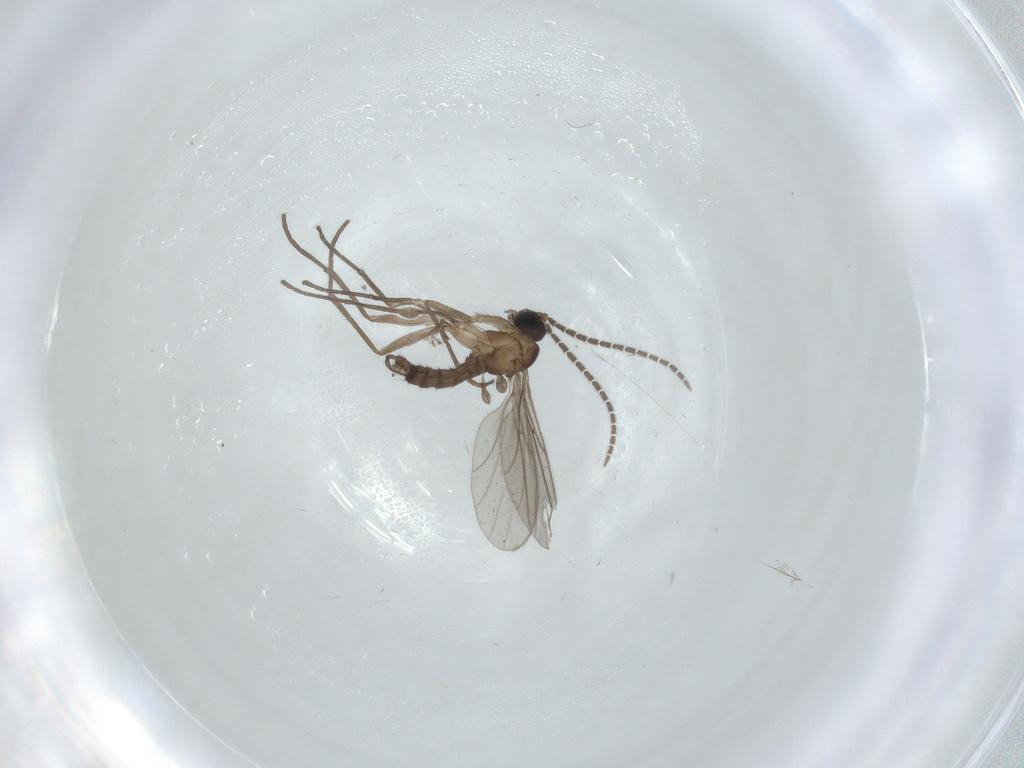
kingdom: Animalia
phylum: Arthropoda
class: Insecta
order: Diptera
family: Sciaridae
